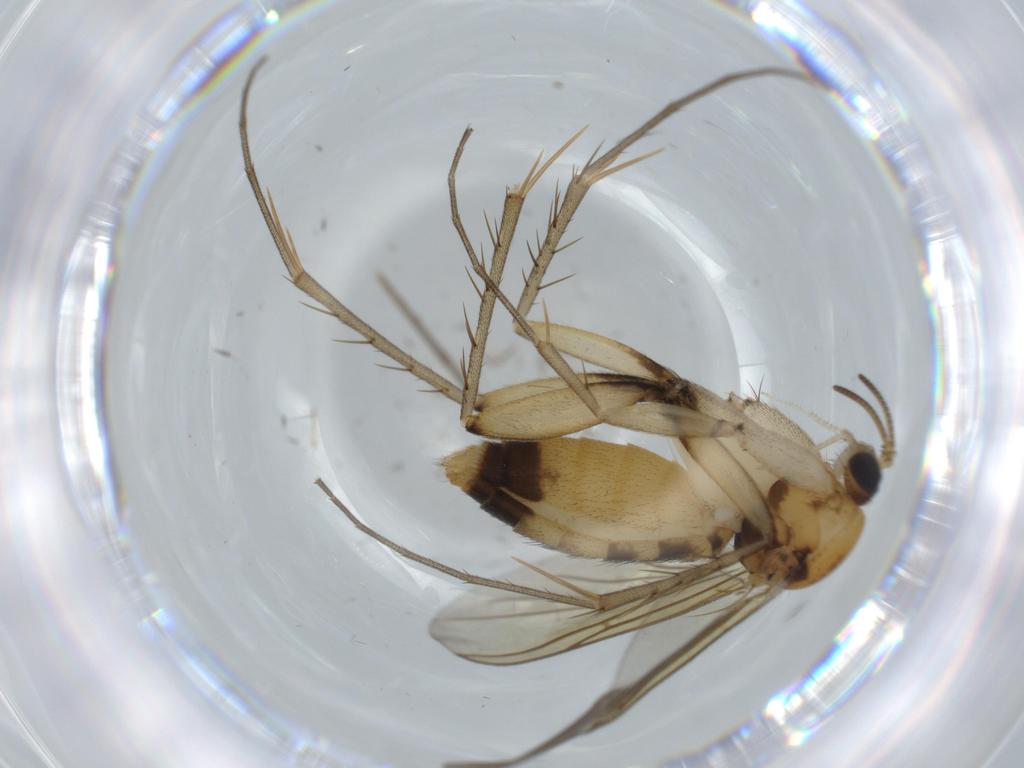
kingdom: Animalia
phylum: Arthropoda
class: Insecta
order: Diptera
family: Mycetophilidae
